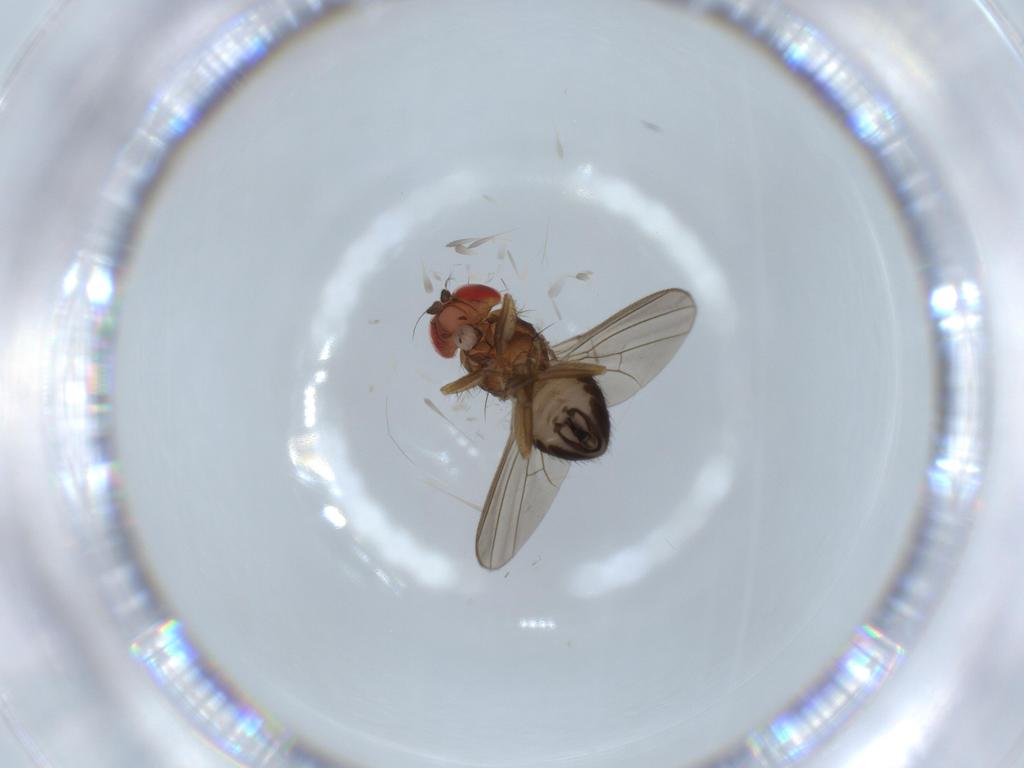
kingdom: Animalia
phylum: Arthropoda
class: Insecta
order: Diptera
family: Drosophilidae
